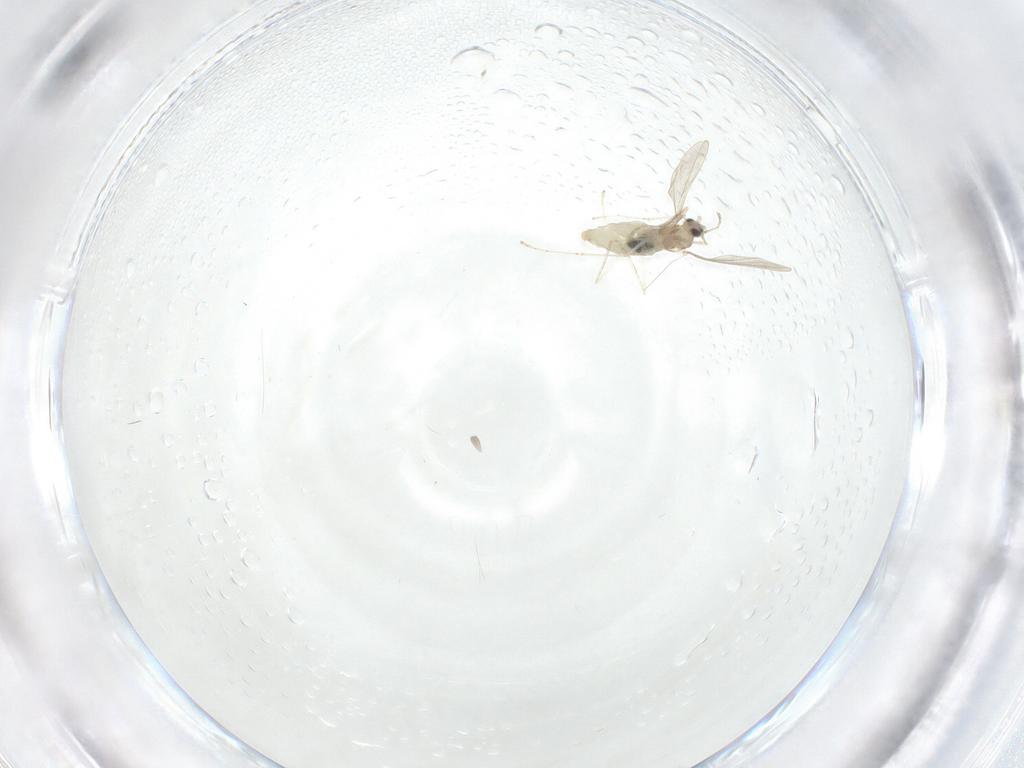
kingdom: Animalia
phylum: Arthropoda
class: Insecta
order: Diptera
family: Cecidomyiidae
